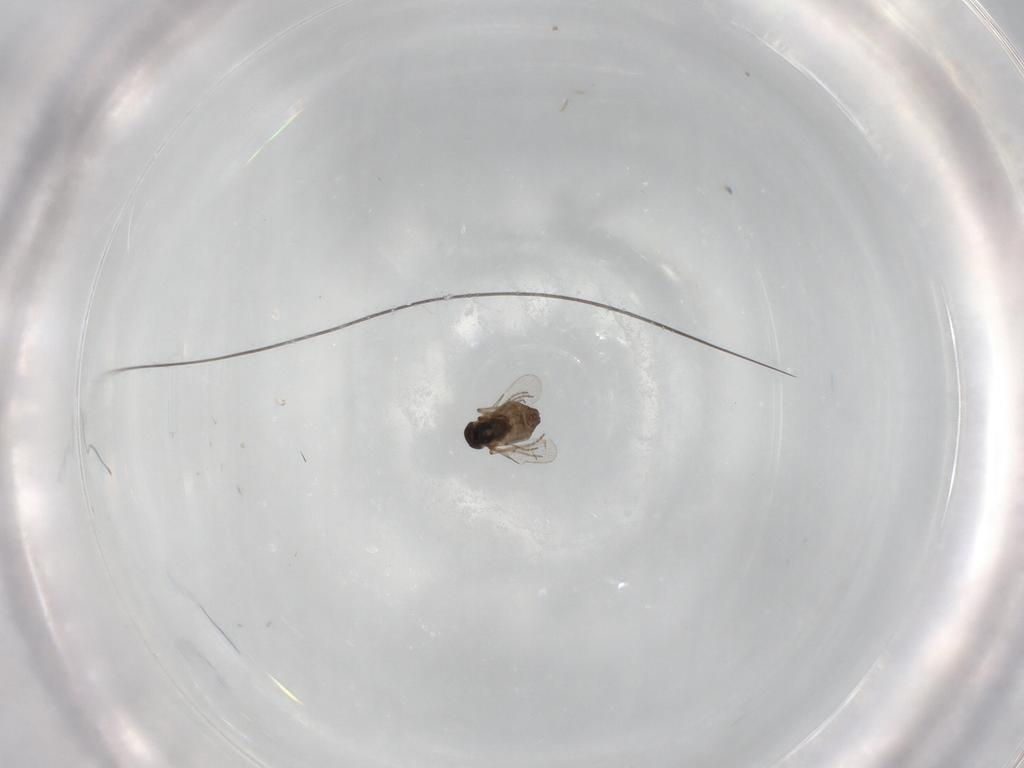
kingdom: Animalia
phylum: Arthropoda
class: Insecta
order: Diptera
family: Ceratopogonidae
